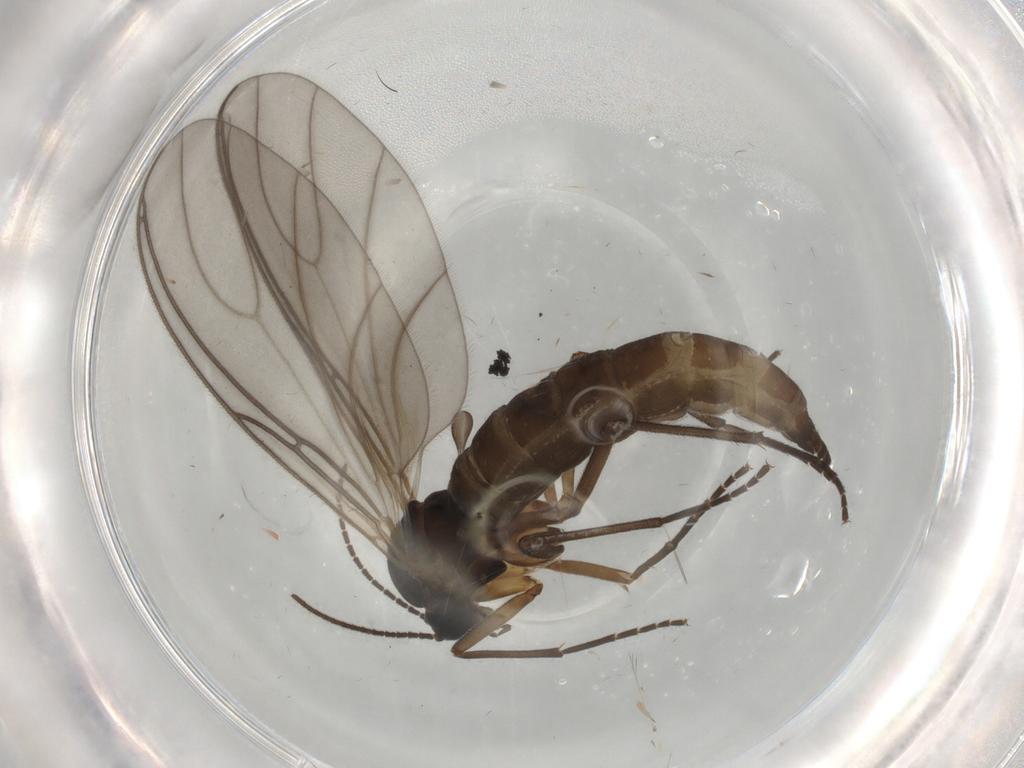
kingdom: Animalia
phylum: Arthropoda
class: Insecta
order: Diptera
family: Sciaridae
